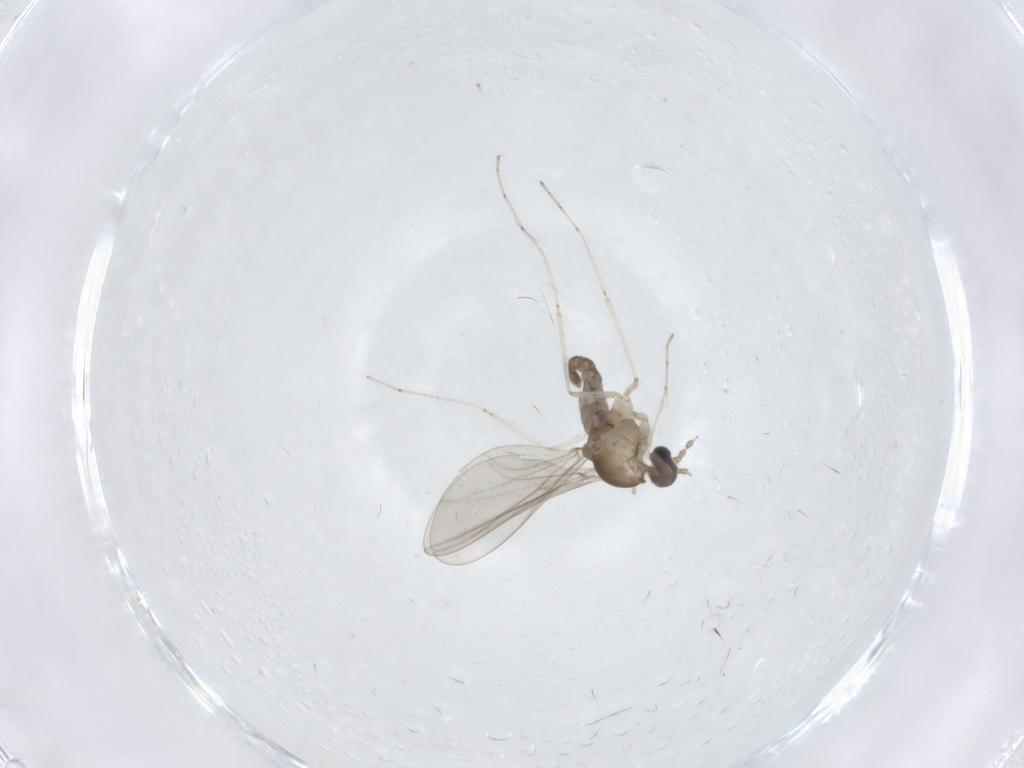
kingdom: Animalia
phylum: Arthropoda
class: Insecta
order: Diptera
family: Cecidomyiidae
